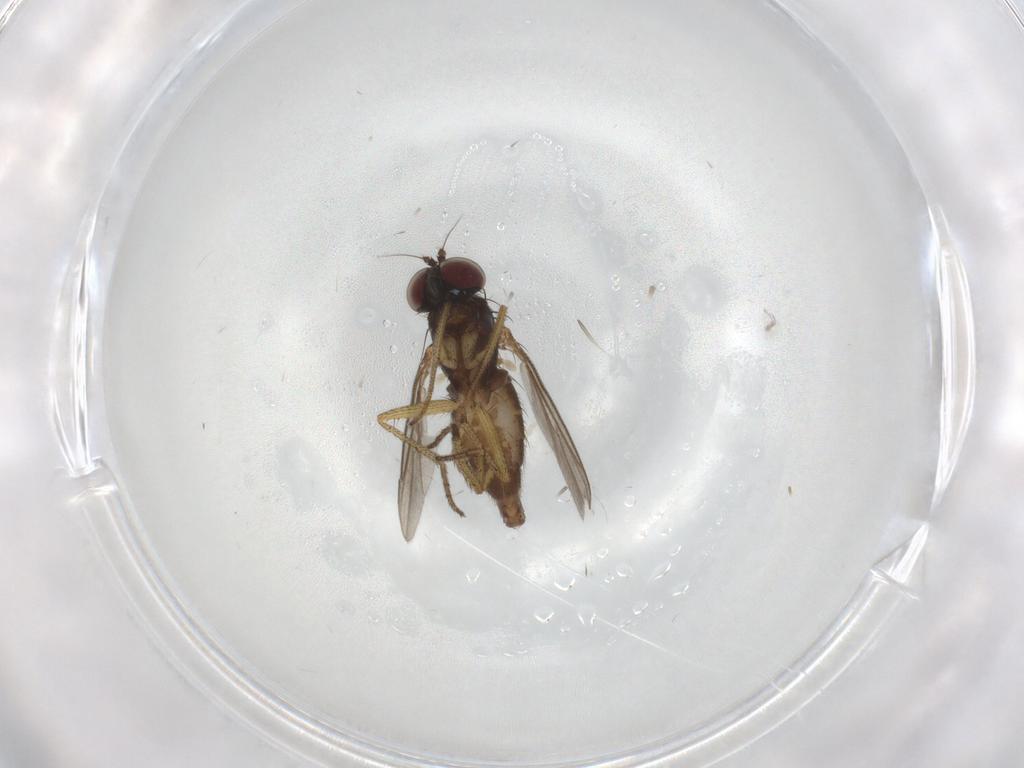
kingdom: Animalia
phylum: Arthropoda
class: Insecta
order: Diptera
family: Dolichopodidae
